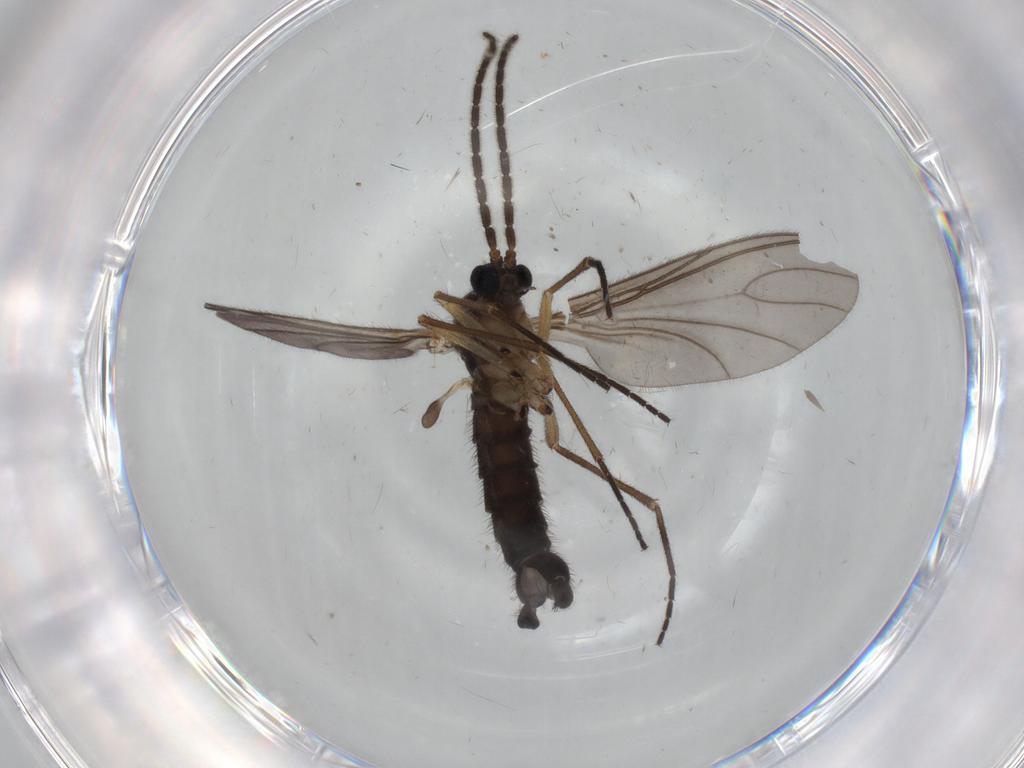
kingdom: Animalia
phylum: Arthropoda
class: Insecta
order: Diptera
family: Sciaridae
